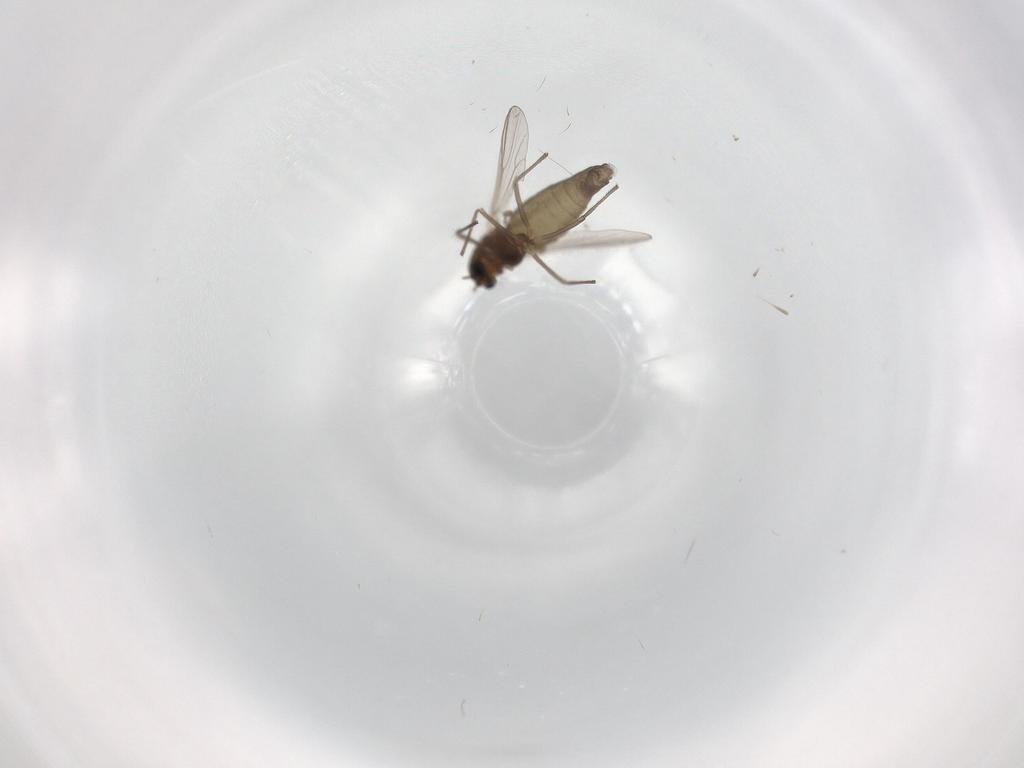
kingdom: Animalia
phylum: Arthropoda
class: Insecta
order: Diptera
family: Chironomidae
